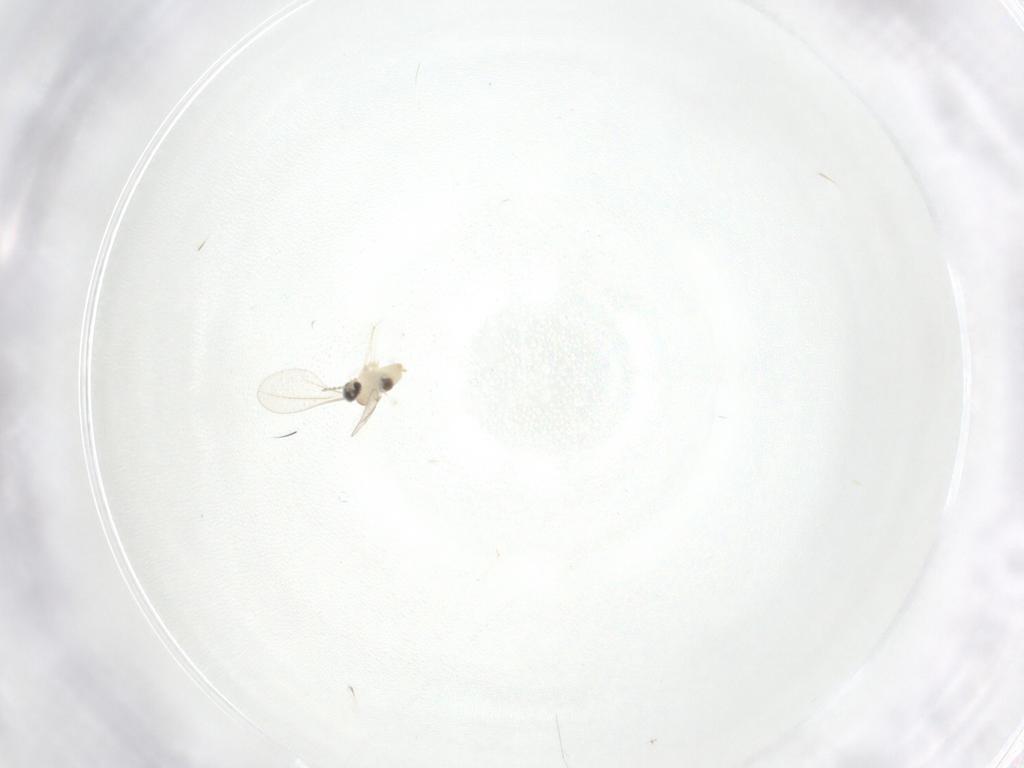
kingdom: Animalia
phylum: Arthropoda
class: Insecta
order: Diptera
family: Cecidomyiidae
